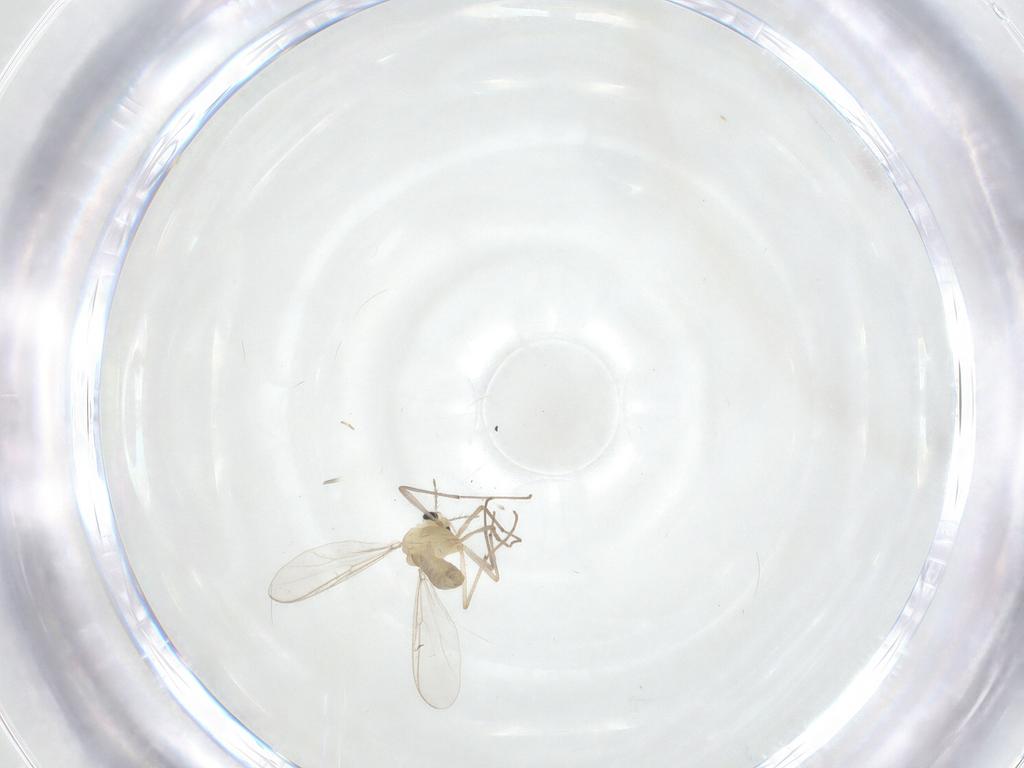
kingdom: Animalia
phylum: Arthropoda
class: Insecta
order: Diptera
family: Chironomidae
